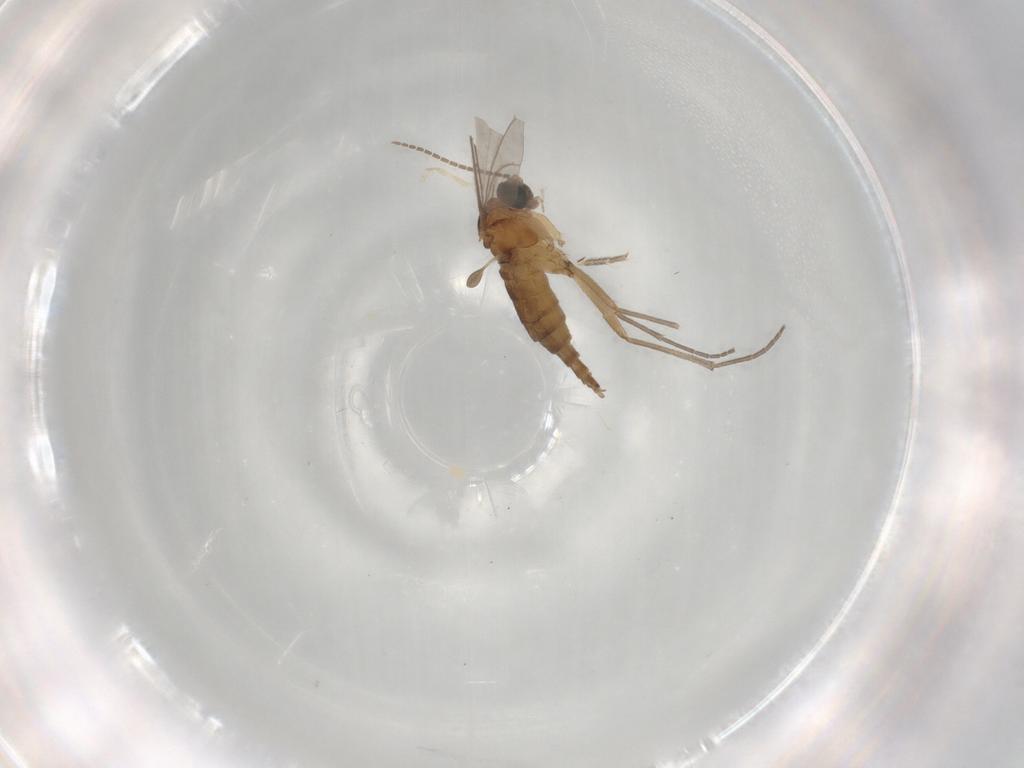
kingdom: Animalia
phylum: Arthropoda
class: Insecta
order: Diptera
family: Sciaridae
